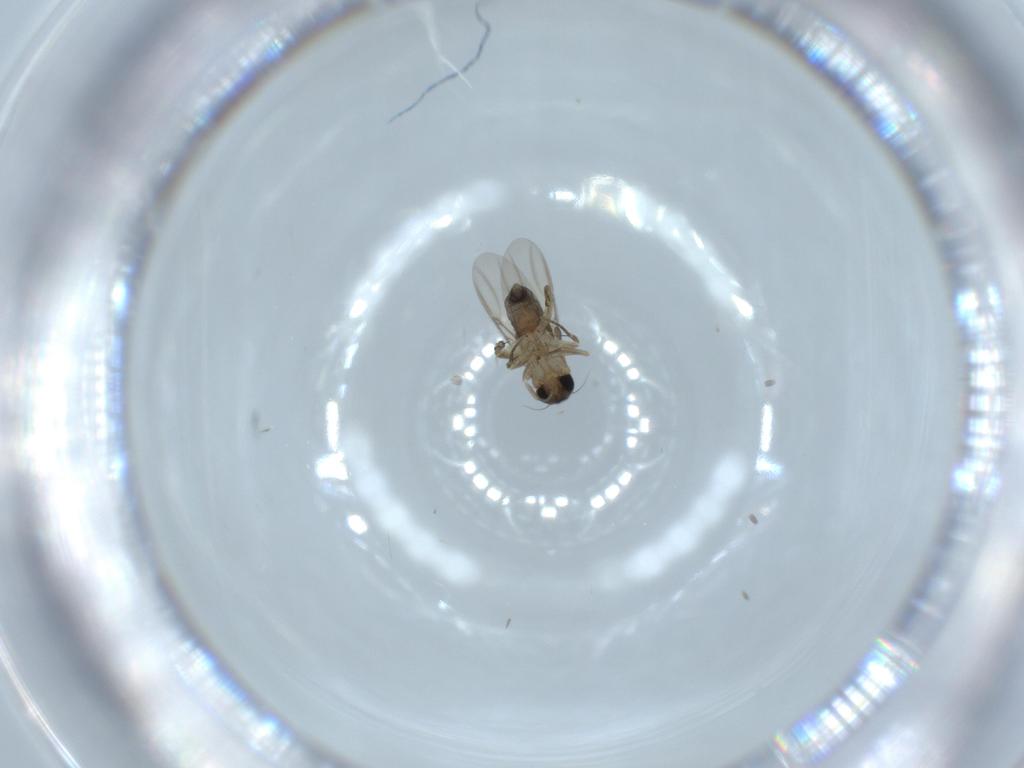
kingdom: Animalia
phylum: Arthropoda
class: Insecta
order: Diptera
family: Phoridae
